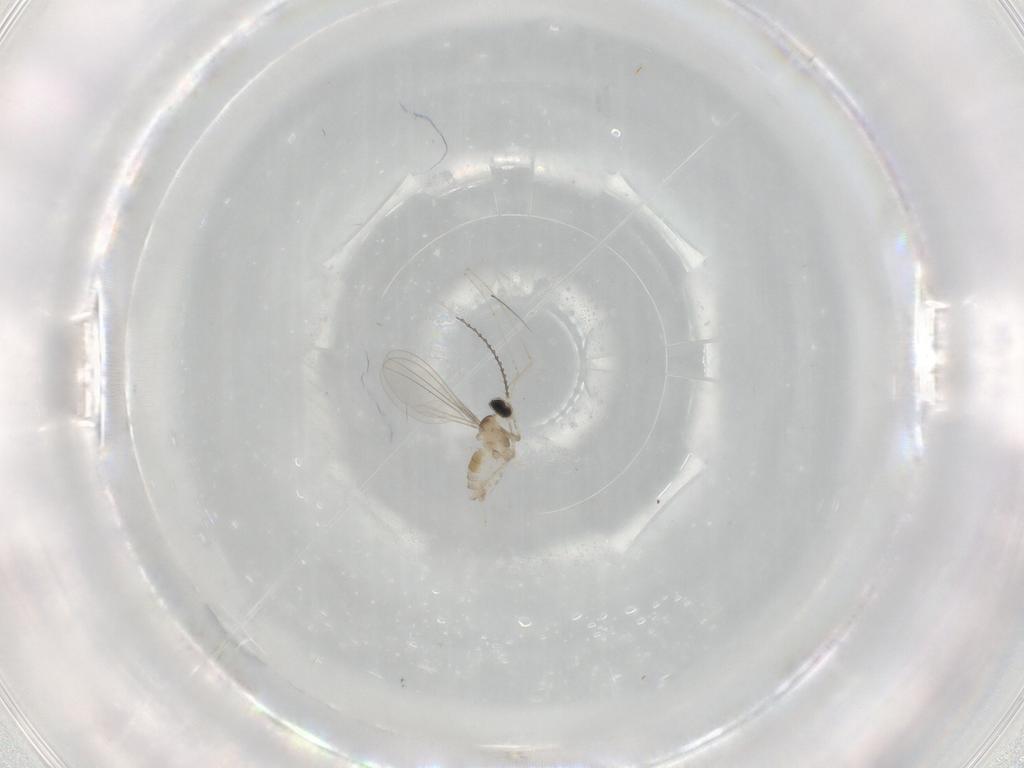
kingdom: Animalia
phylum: Arthropoda
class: Insecta
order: Diptera
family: Cecidomyiidae
